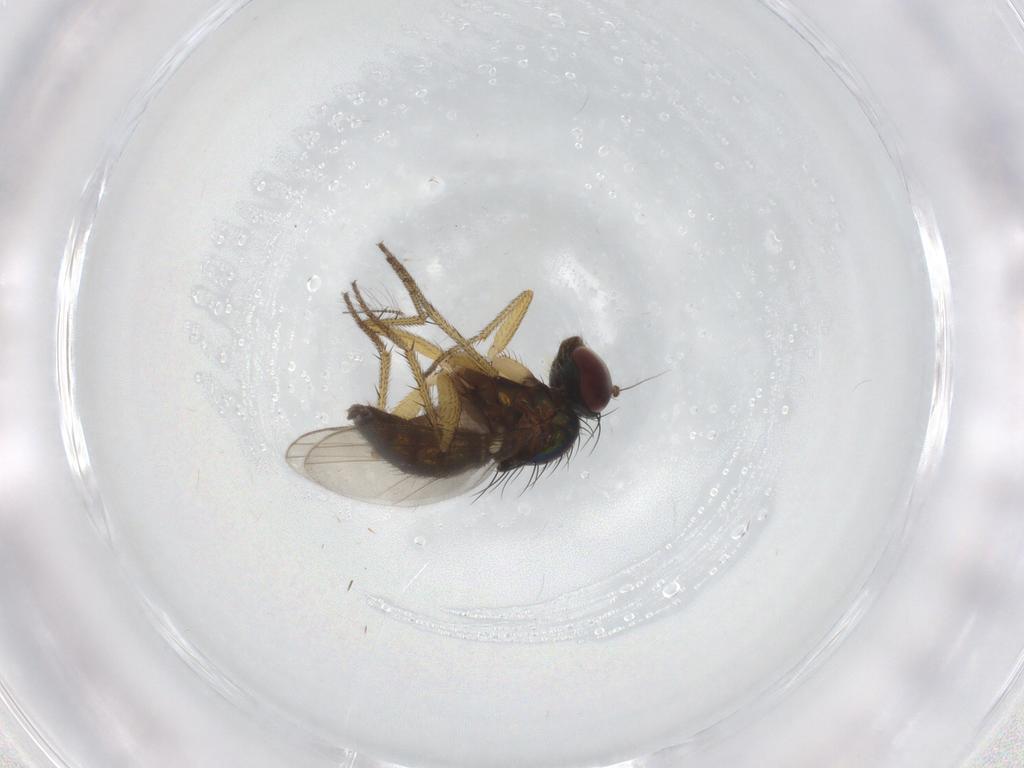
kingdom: Animalia
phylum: Arthropoda
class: Insecta
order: Diptera
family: Ceratopogonidae
